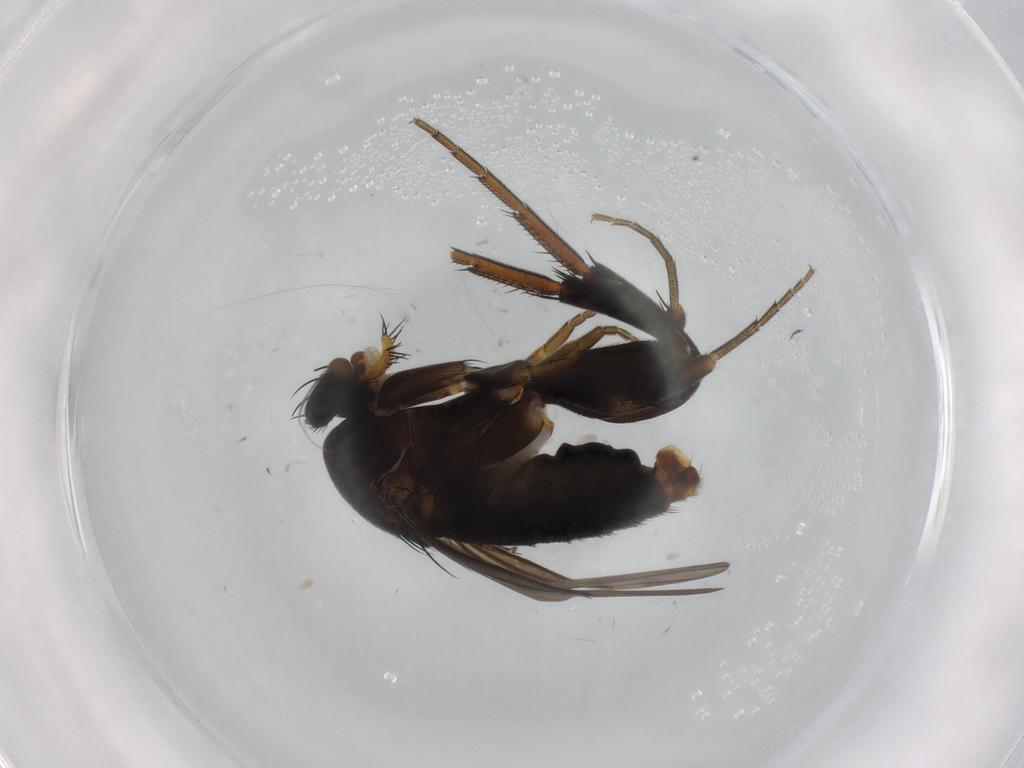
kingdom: Animalia
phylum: Arthropoda
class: Insecta
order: Diptera
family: Phoridae
